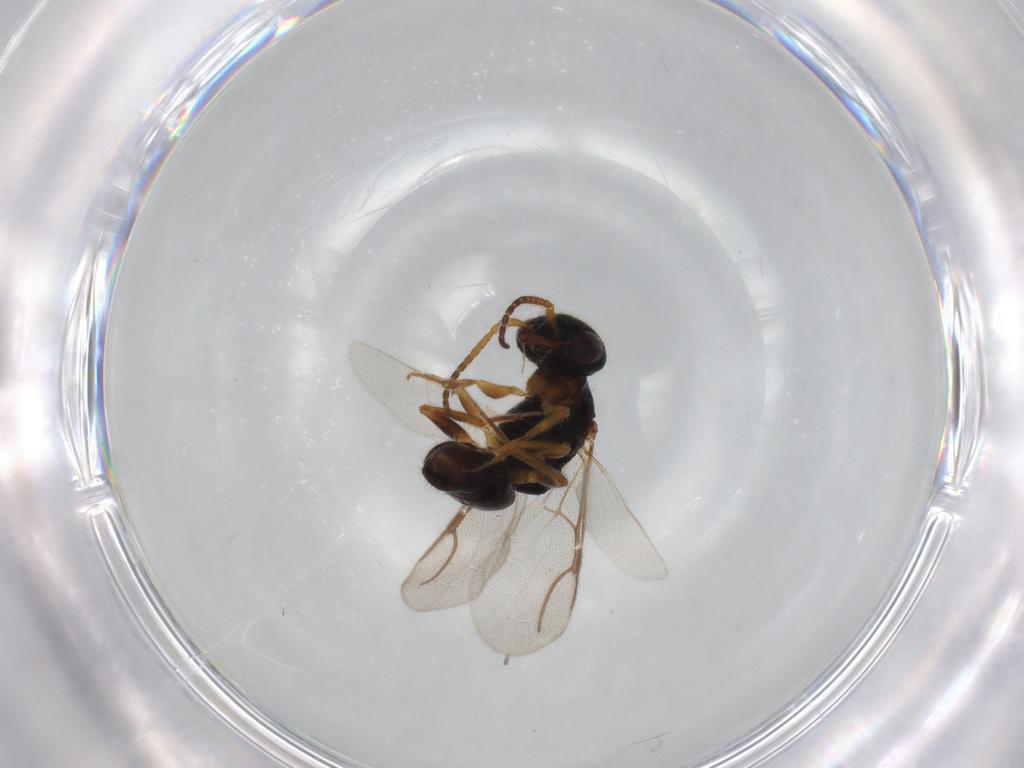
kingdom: Animalia
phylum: Arthropoda
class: Insecta
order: Hymenoptera
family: Bethylidae
